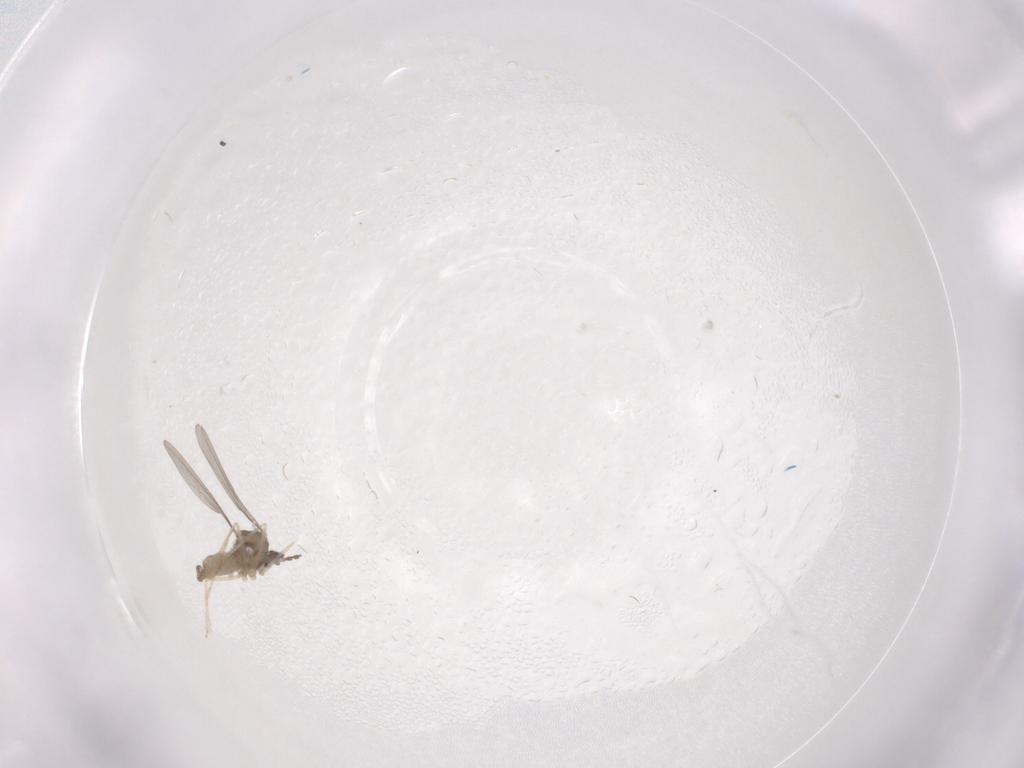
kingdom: Animalia
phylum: Arthropoda
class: Insecta
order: Diptera
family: Cecidomyiidae
